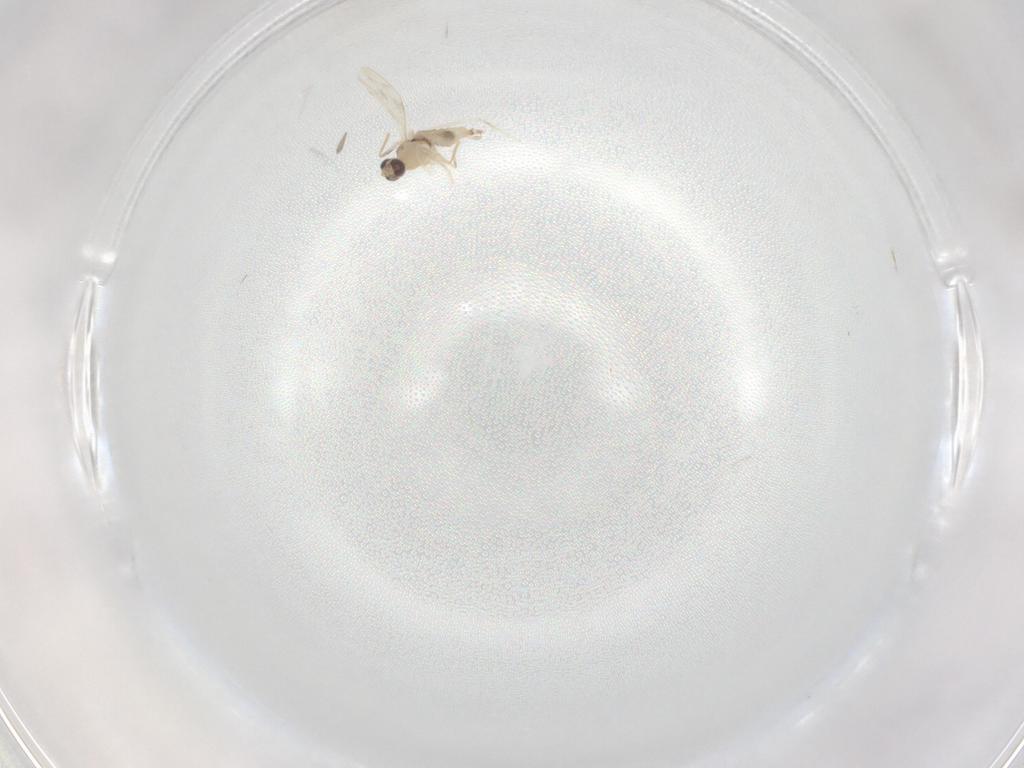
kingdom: Animalia
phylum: Arthropoda
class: Insecta
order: Diptera
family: Cecidomyiidae
